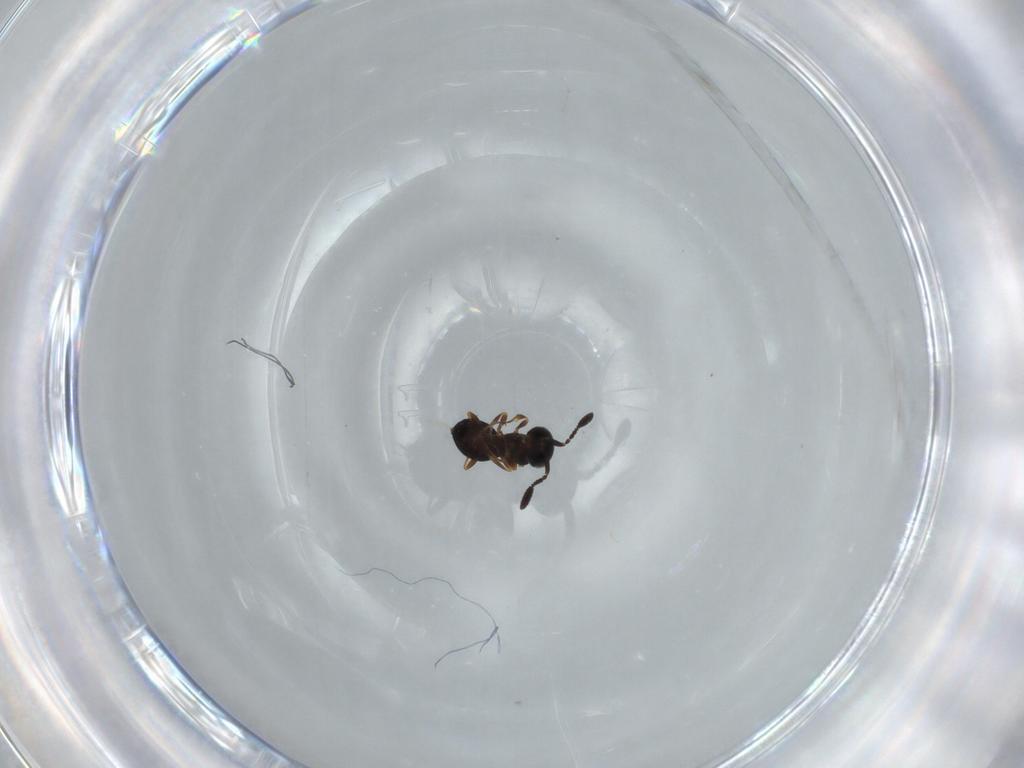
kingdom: Animalia
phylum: Arthropoda
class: Insecta
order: Hymenoptera
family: Scelionidae
